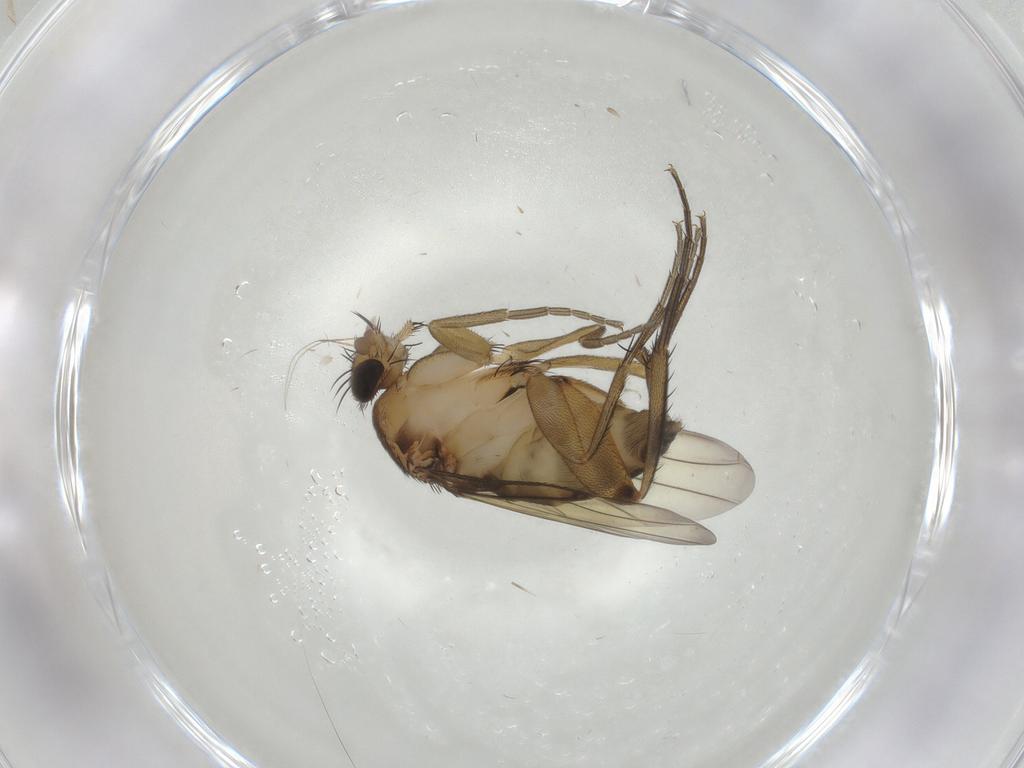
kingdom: Animalia
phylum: Arthropoda
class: Insecta
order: Diptera
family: Phoridae
